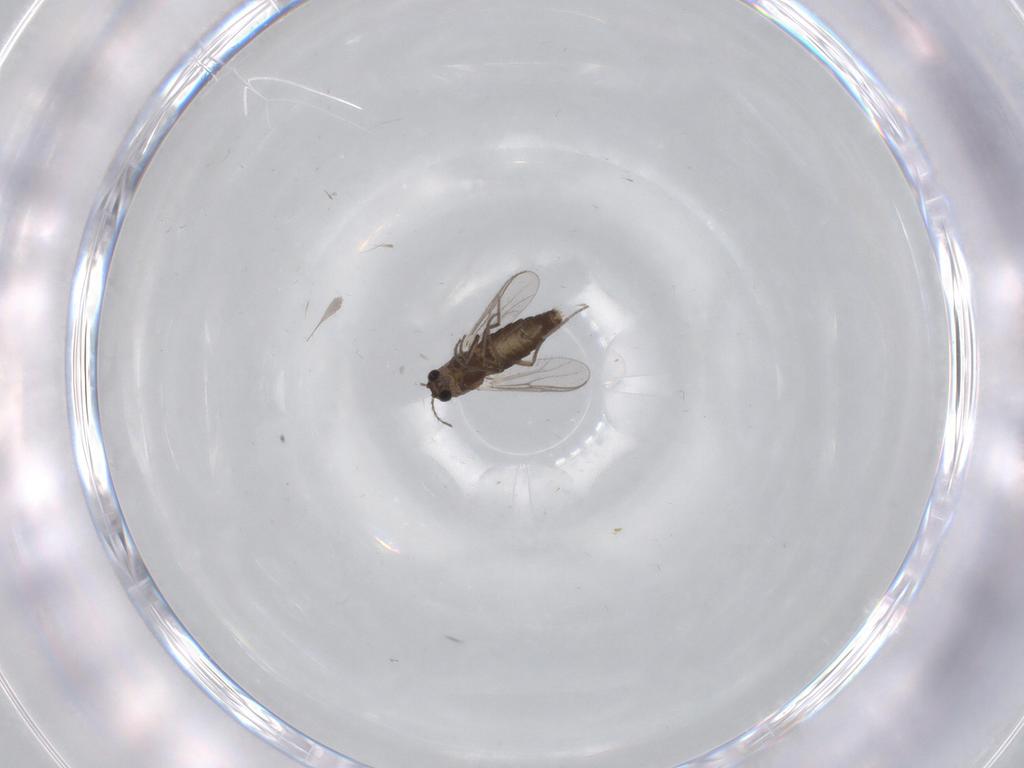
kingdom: Animalia
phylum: Arthropoda
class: Insecta
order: Diptera
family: Chironomidae
